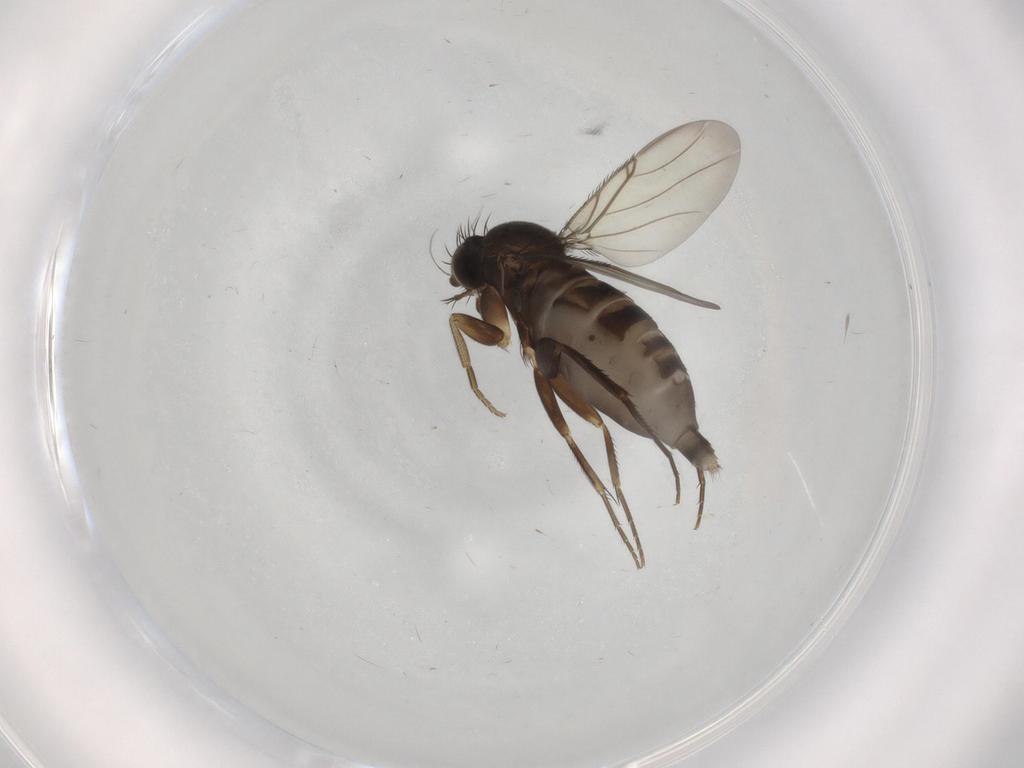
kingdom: Animalia
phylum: Arthropoda
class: Insecta
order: Diptera
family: Phoridae
